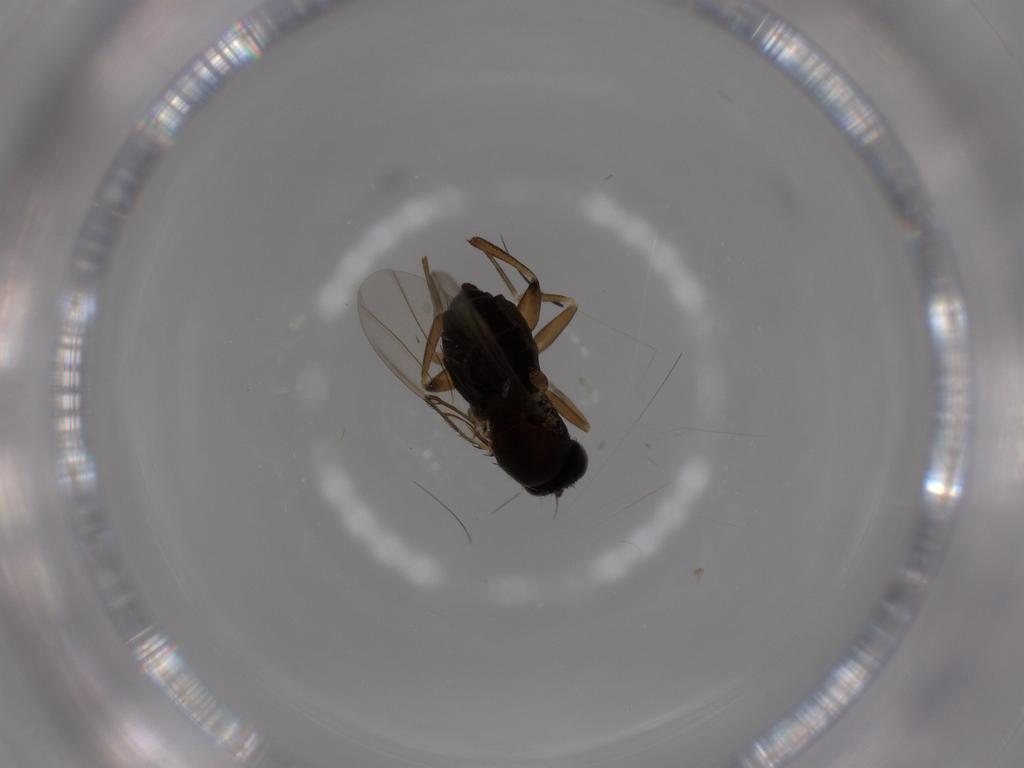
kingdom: Animalia
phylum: Arthropoda
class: Insecta
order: Diptera
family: Phoridae
